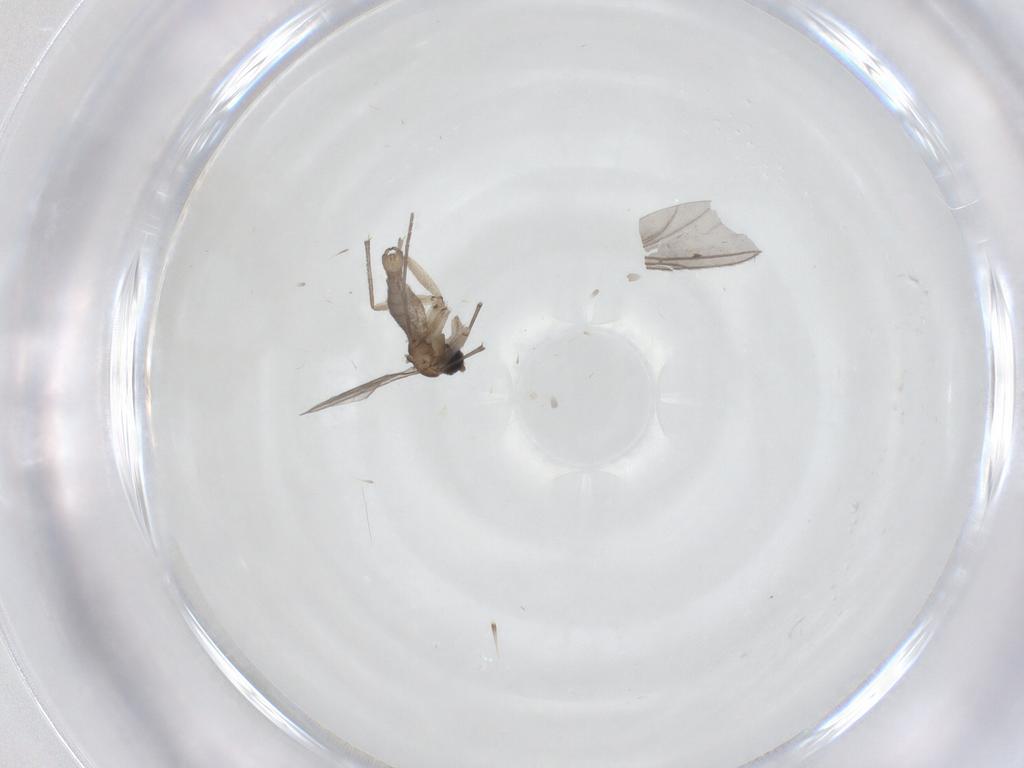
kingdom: Animalia
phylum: Arthropoda
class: Insecta
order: Diptera
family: Sciaridae
